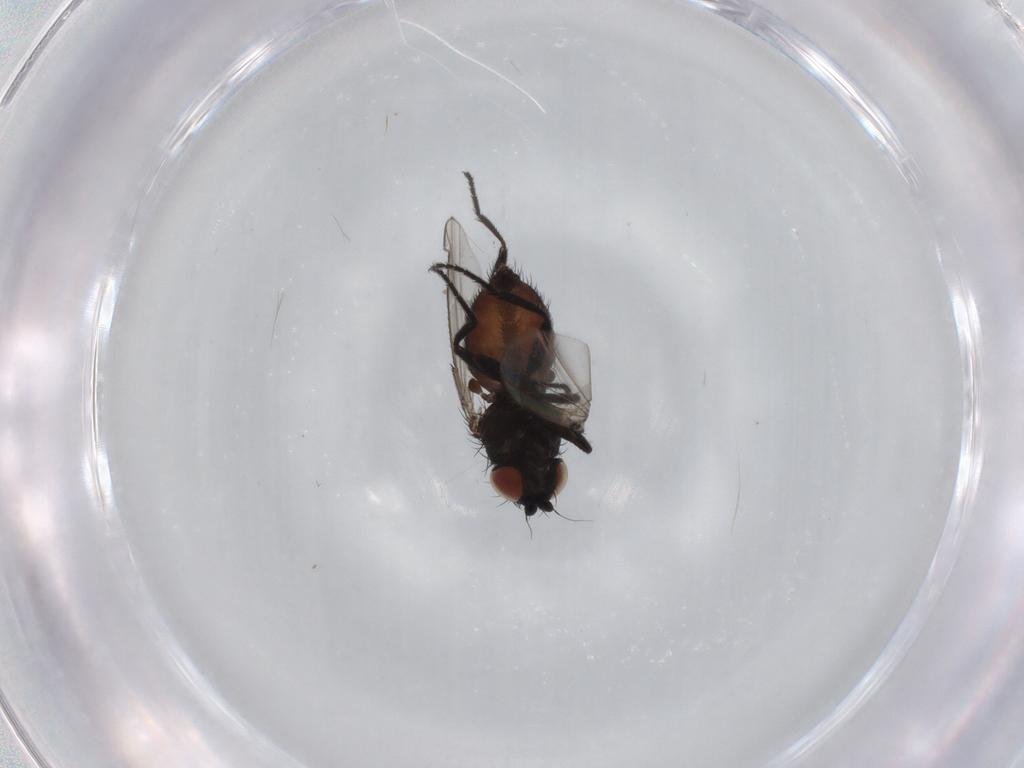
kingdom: Animalia
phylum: Arthropoda
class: Insecta
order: Diptera
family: Milichiidae
